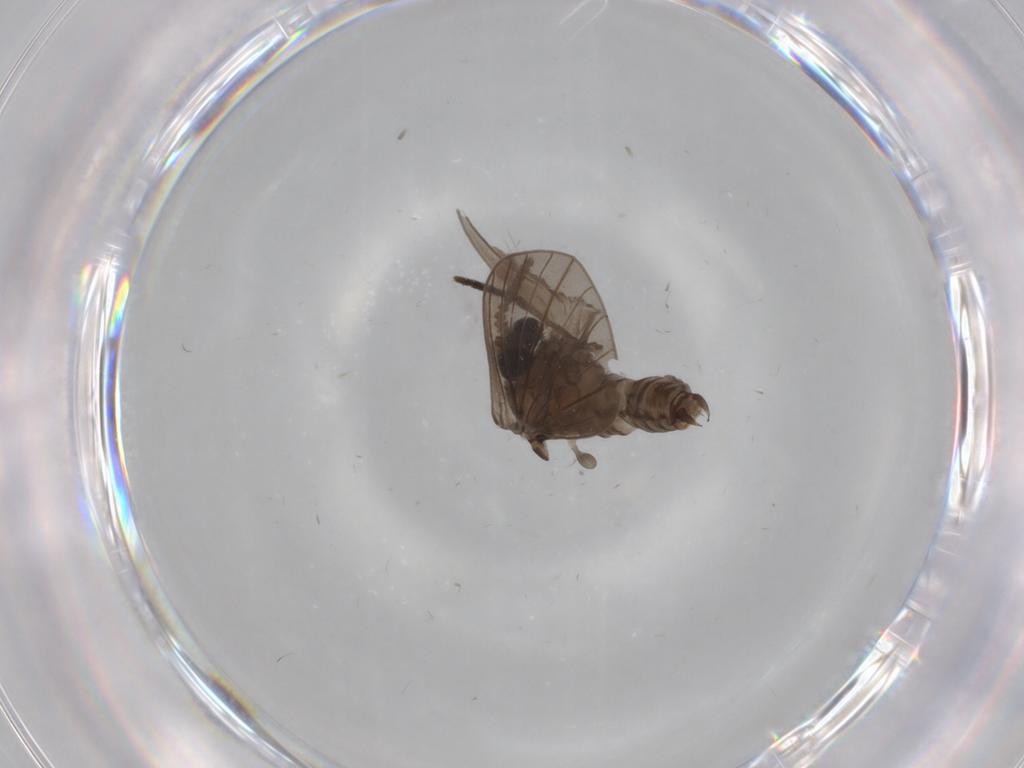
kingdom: Animalia
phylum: Arthropoda
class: Insecta
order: Diptera
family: Psychodidae
